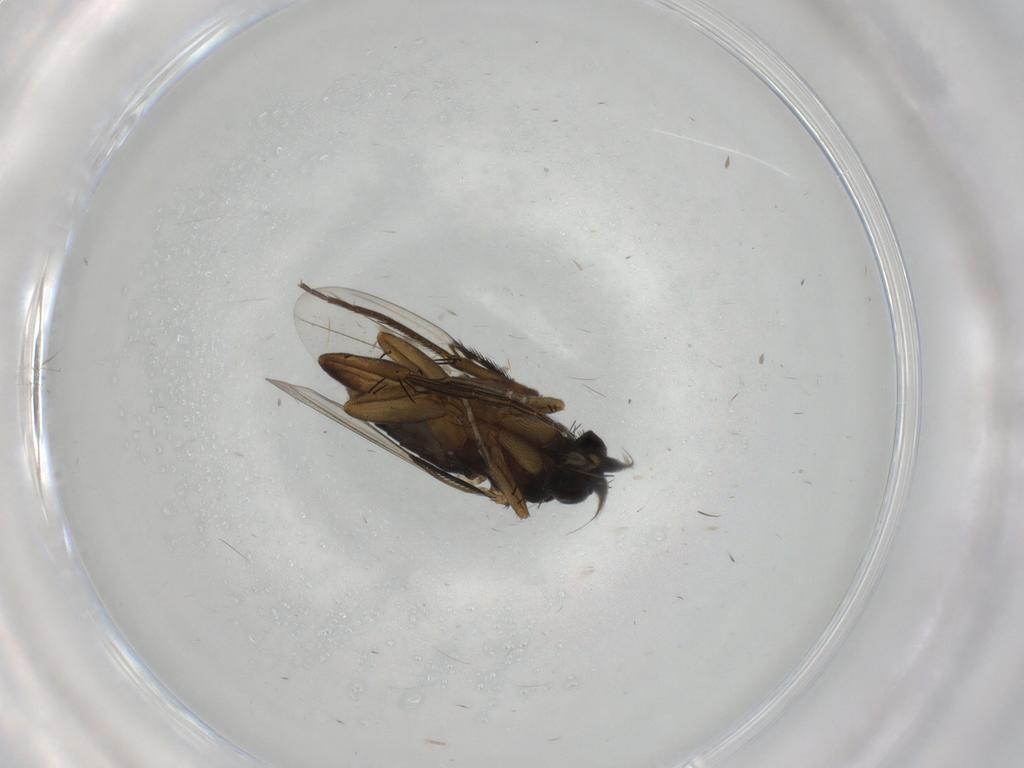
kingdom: Animalia
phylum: Arthropoda
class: Insecta
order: Diptera
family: Phoridae
